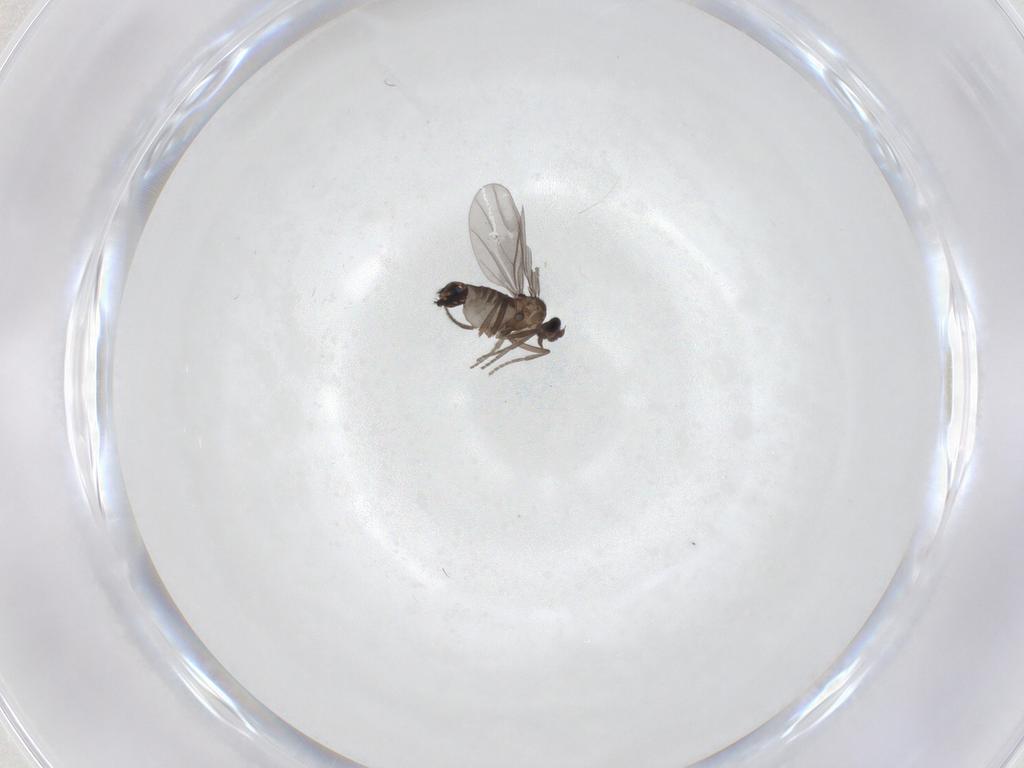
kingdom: Animalia
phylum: Arthropoda
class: Insecta
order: Diptera
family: Phoridae
